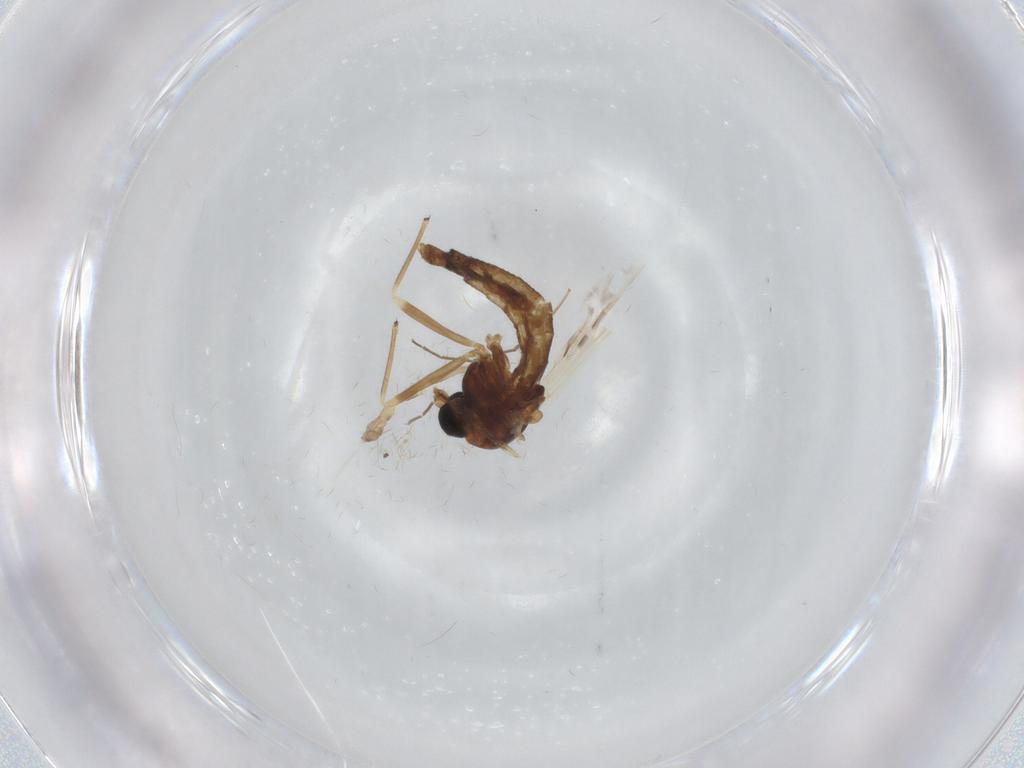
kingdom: Animalia
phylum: Arthropoda
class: Insecta
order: Diptera
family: Chironomidae
